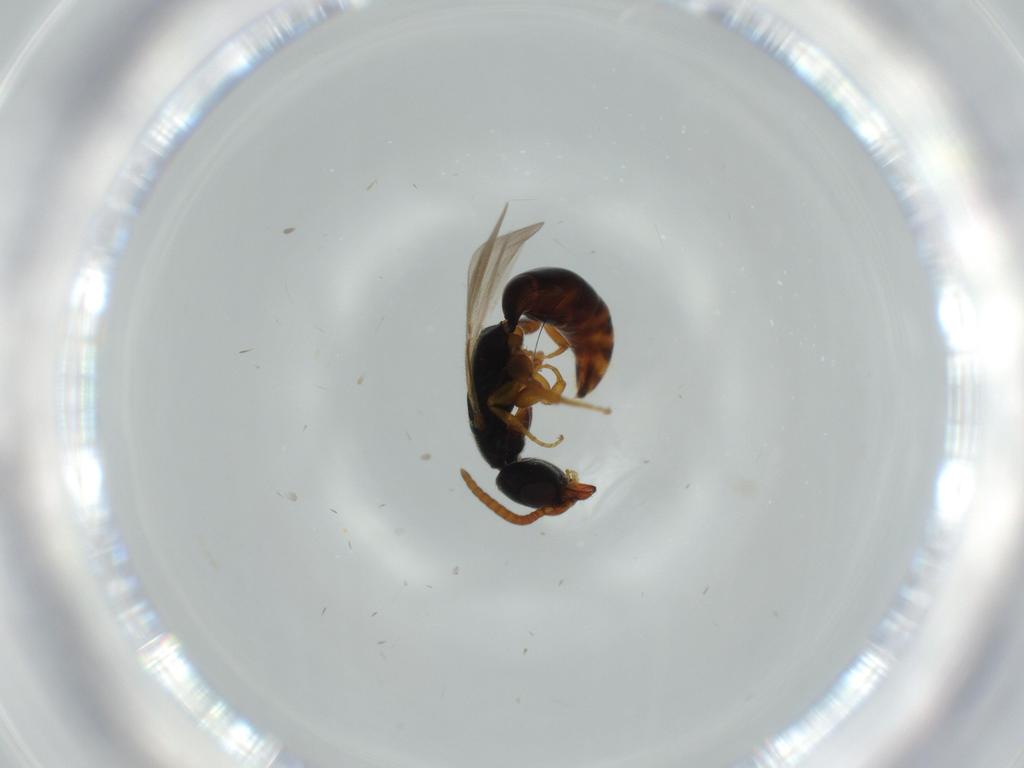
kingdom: Animalia
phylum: Arthropoda
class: Insecta
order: Hymenoptera
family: Bethylidae
